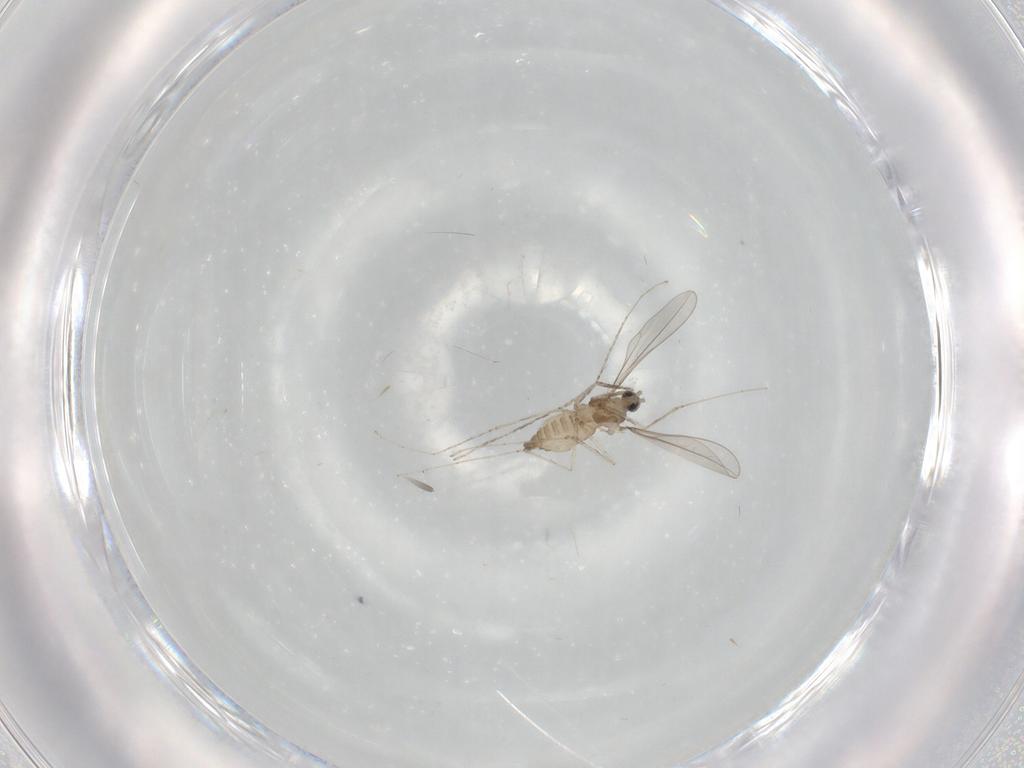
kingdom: Animalia
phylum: Arthropoda
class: Insecta
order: Diptera
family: Cecidomyiidae
